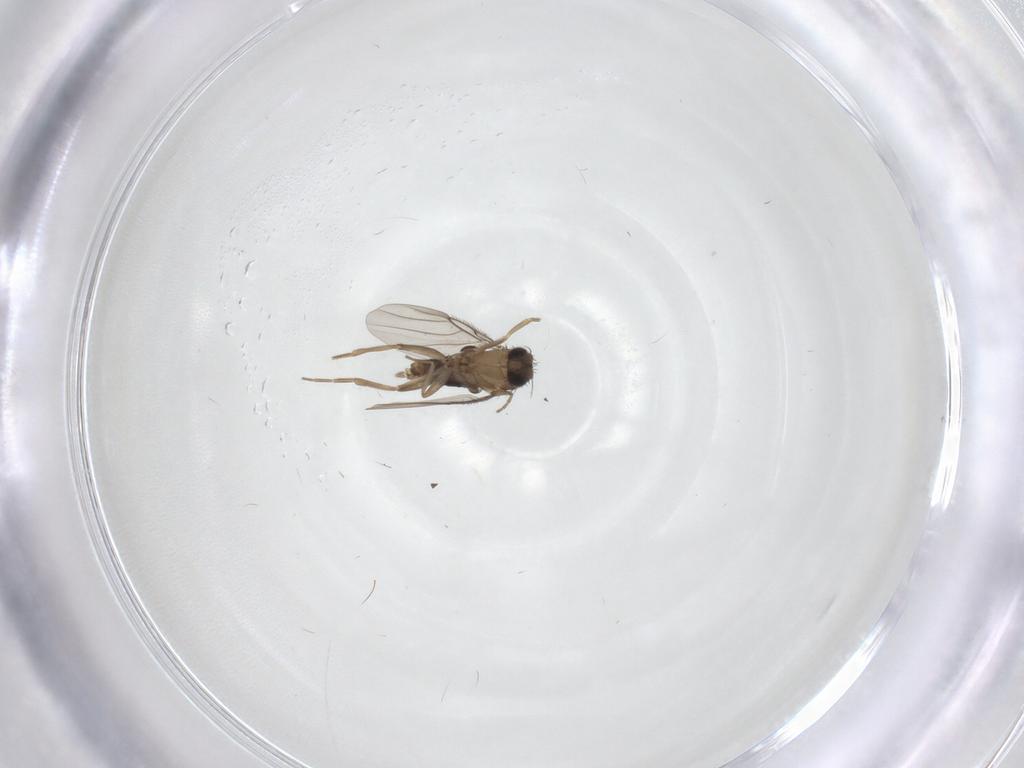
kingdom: Animalia
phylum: Arthropoda
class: Insecta
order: Diptera
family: Phoridae
